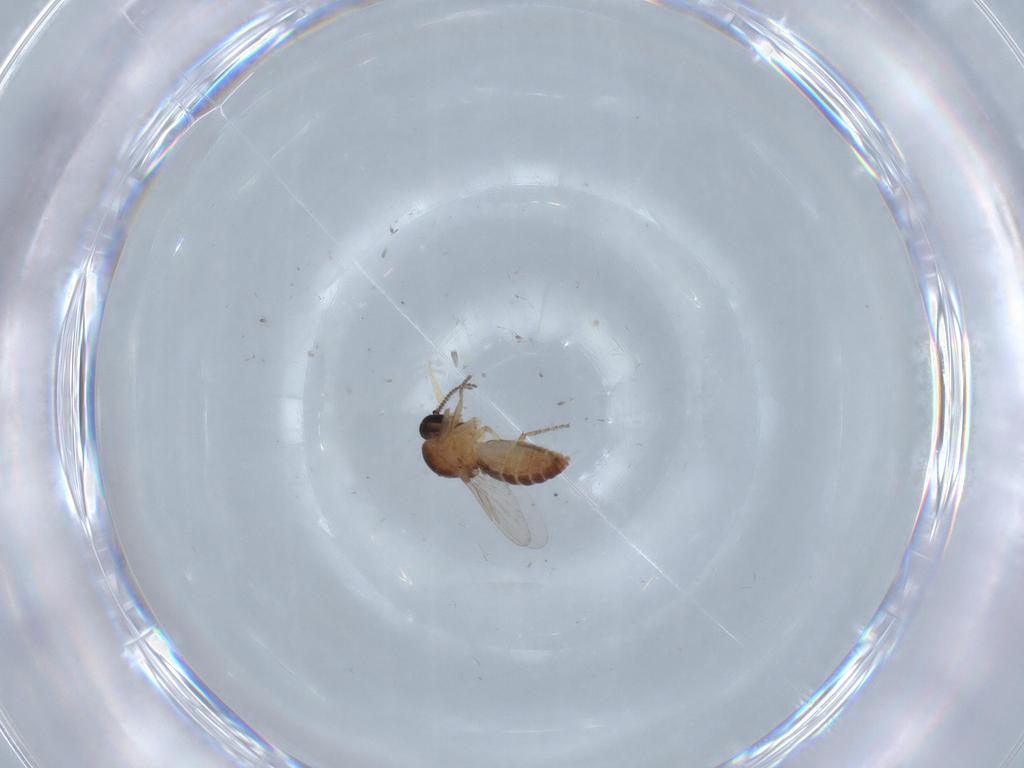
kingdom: Animalia
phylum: Arthropoda
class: Insecta
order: Diptera
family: Ceratopogonidae
